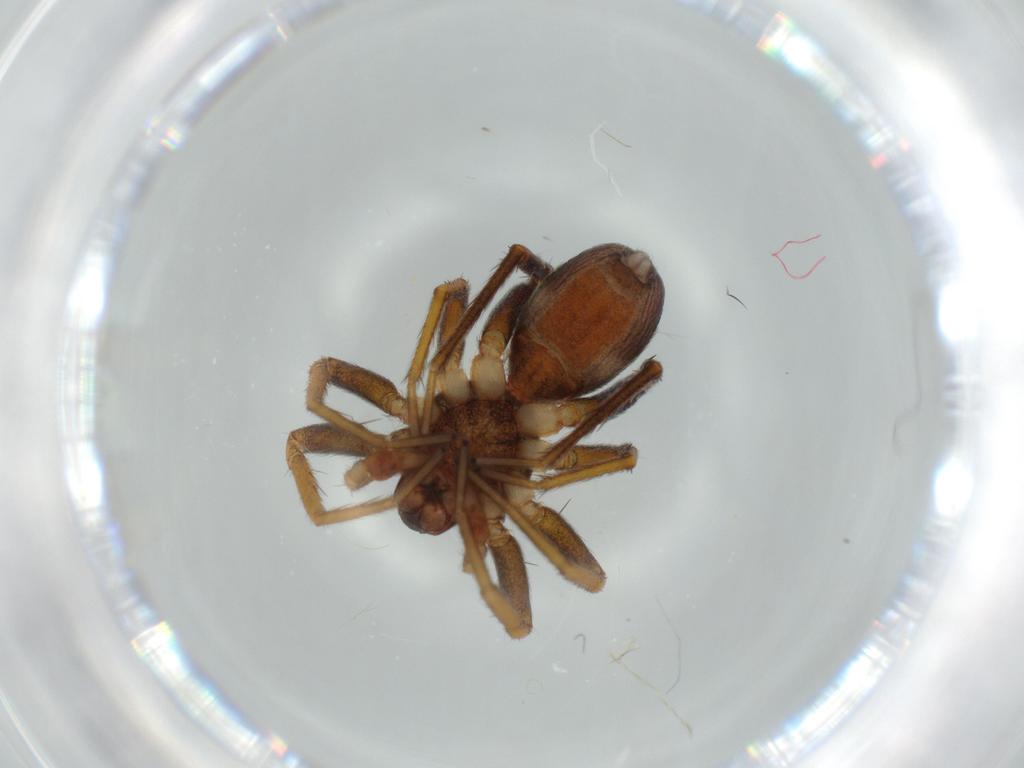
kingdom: Animalia
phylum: Arthropoda
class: Arachnida
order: Araneae
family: Corinnidae
